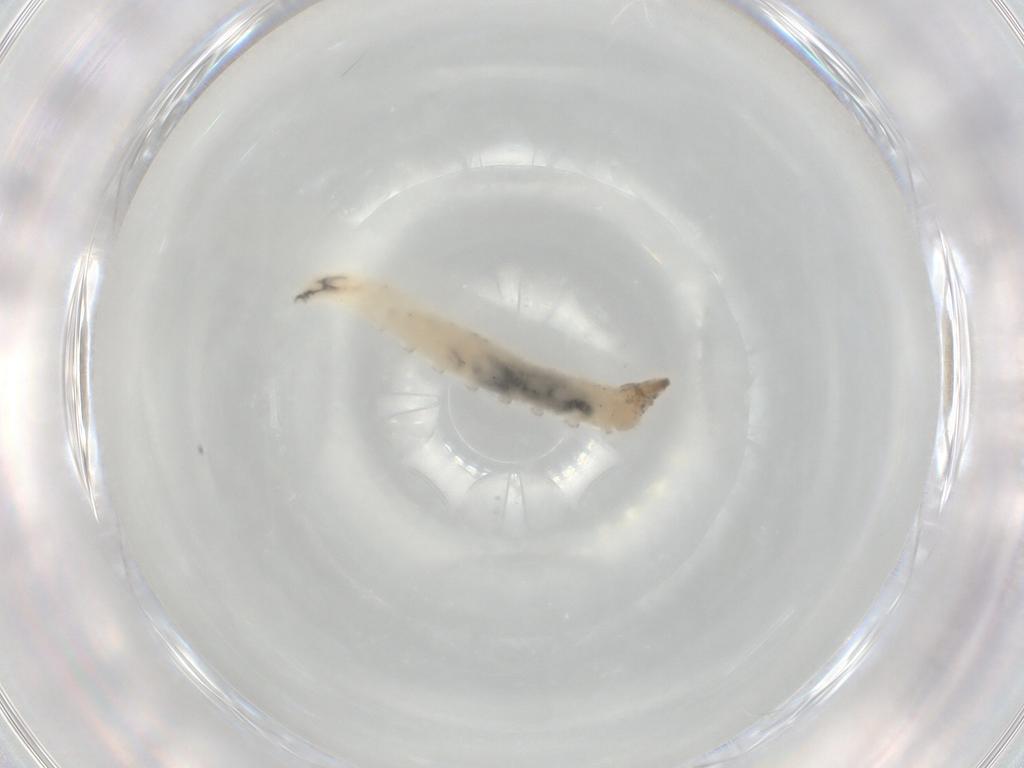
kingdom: Animalia
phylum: Arthropoda
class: Insecta
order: Diptera
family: Drosophilidae
